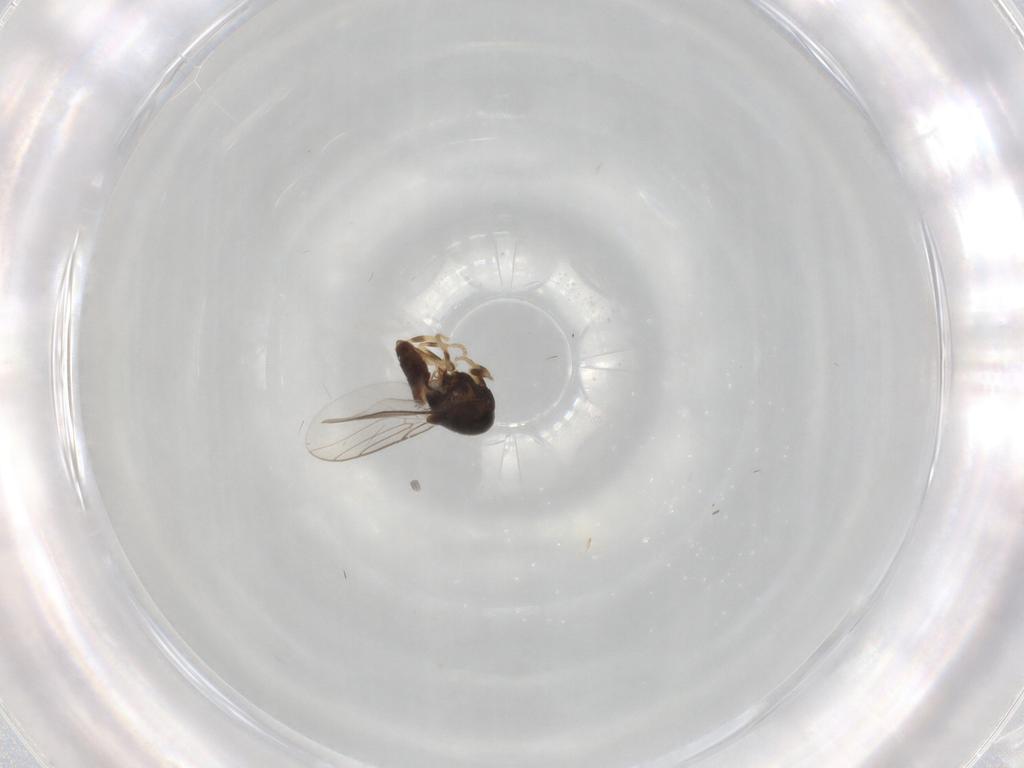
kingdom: Animalia
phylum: Arthropoda
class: Insecta
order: Diptera
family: Chloropidae
